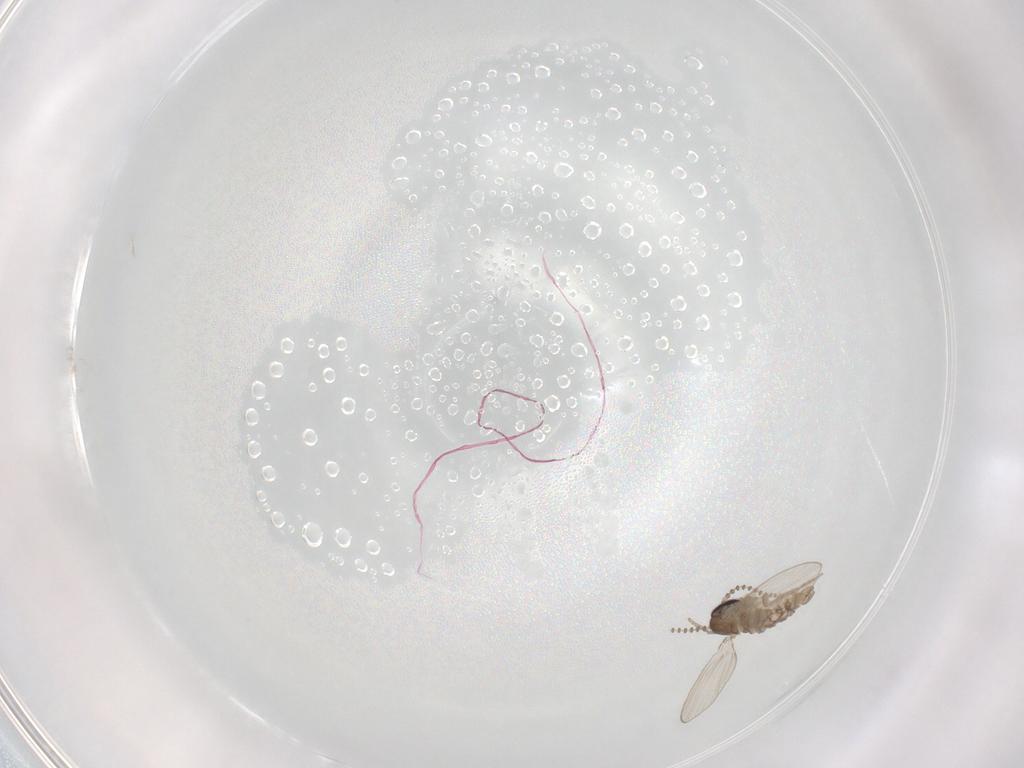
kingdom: Animalia
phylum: Arthropoda
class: Insecta
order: Diptera
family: Psychodidae
